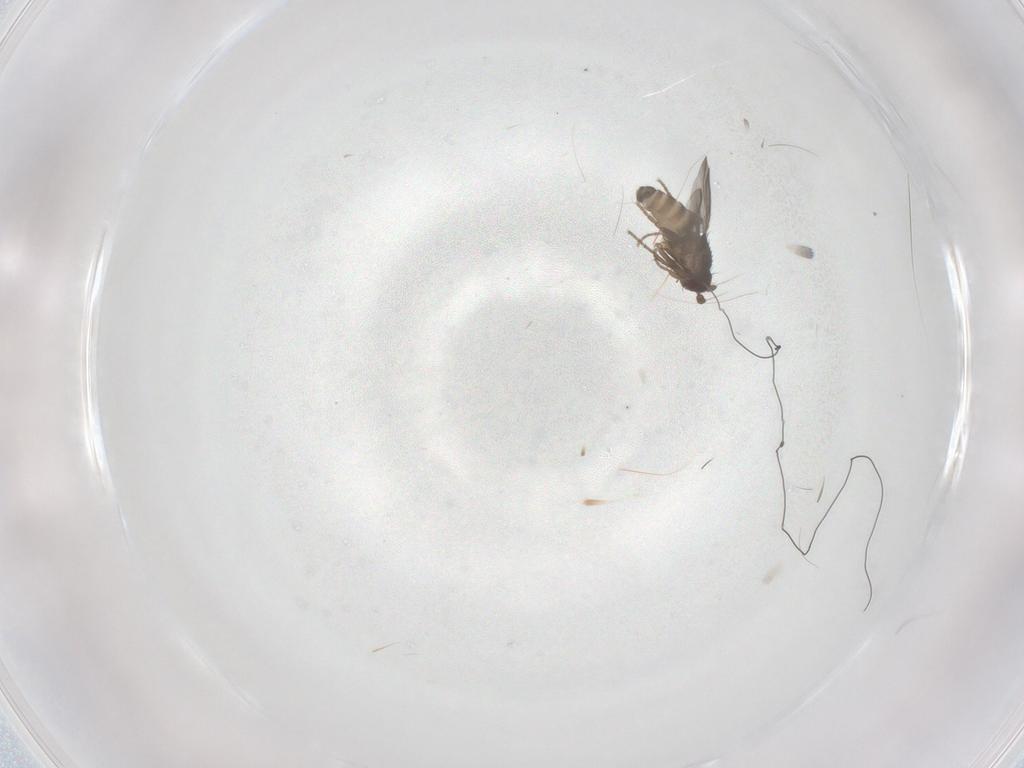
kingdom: Animalia
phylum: Arthropoda
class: Insecta
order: Diptera
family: Sphaeroceridae
